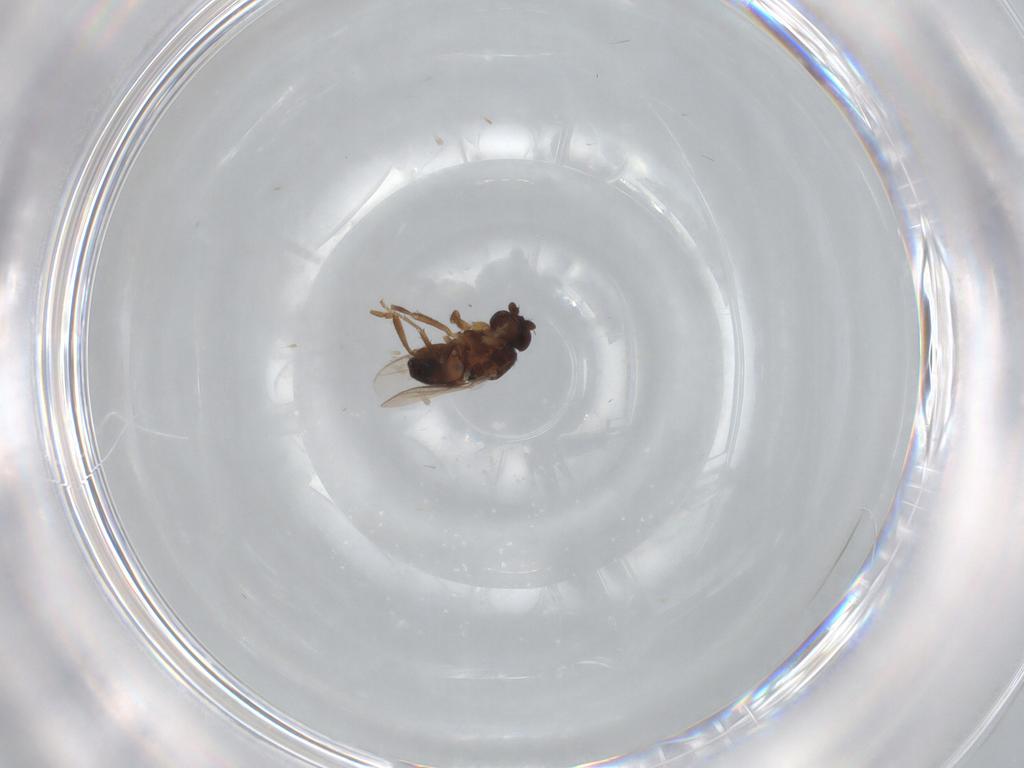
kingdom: Animalia
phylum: Arthropoda
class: Insecta
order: Diptera
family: Sphaeroceridae
